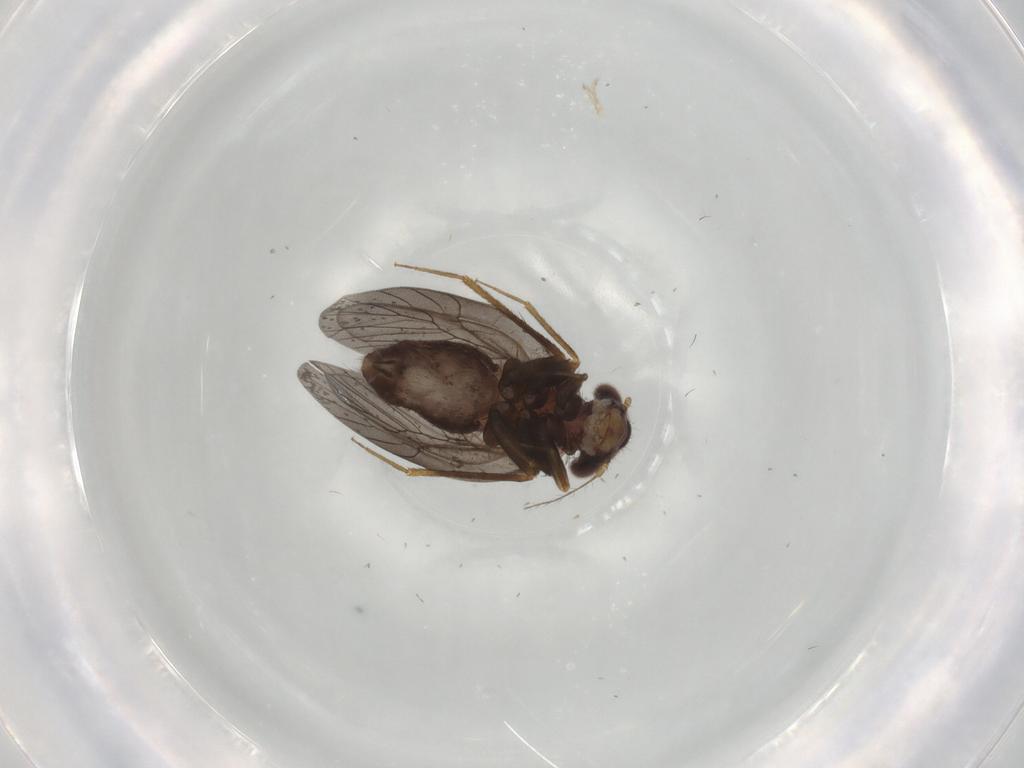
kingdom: Animalia
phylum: Arthropoda
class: Insecta
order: Psocodea
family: Lepidopsocidae
